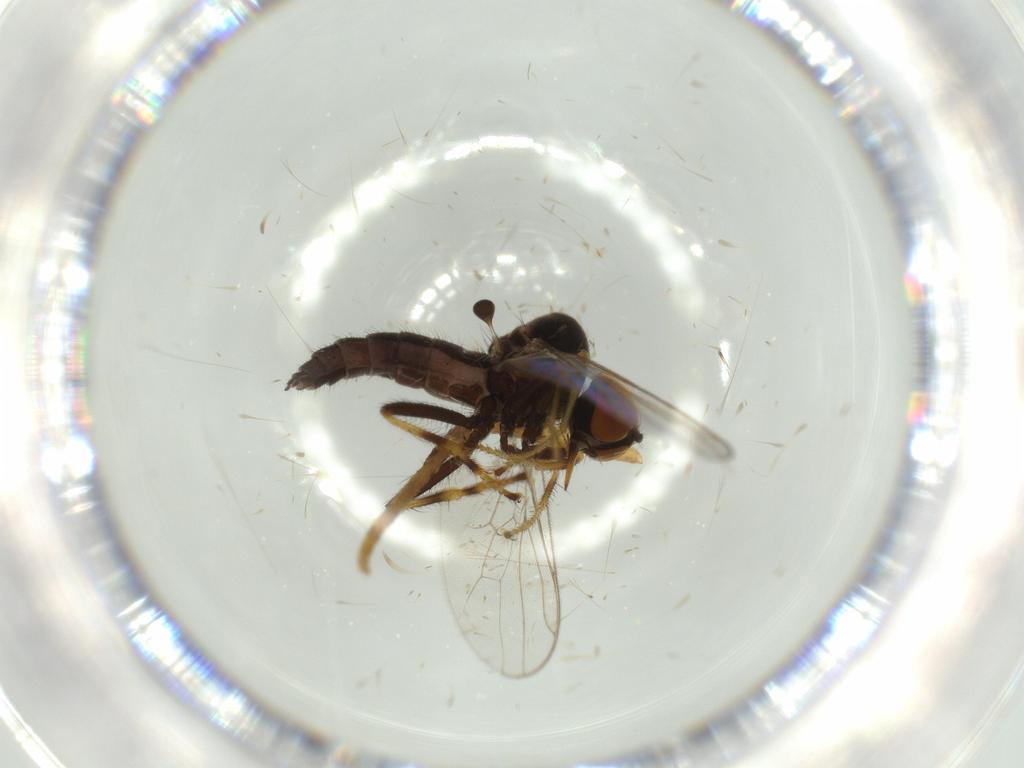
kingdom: Animalia
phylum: Arthropoda
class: Insecta
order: Diptera
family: Hybotidae
